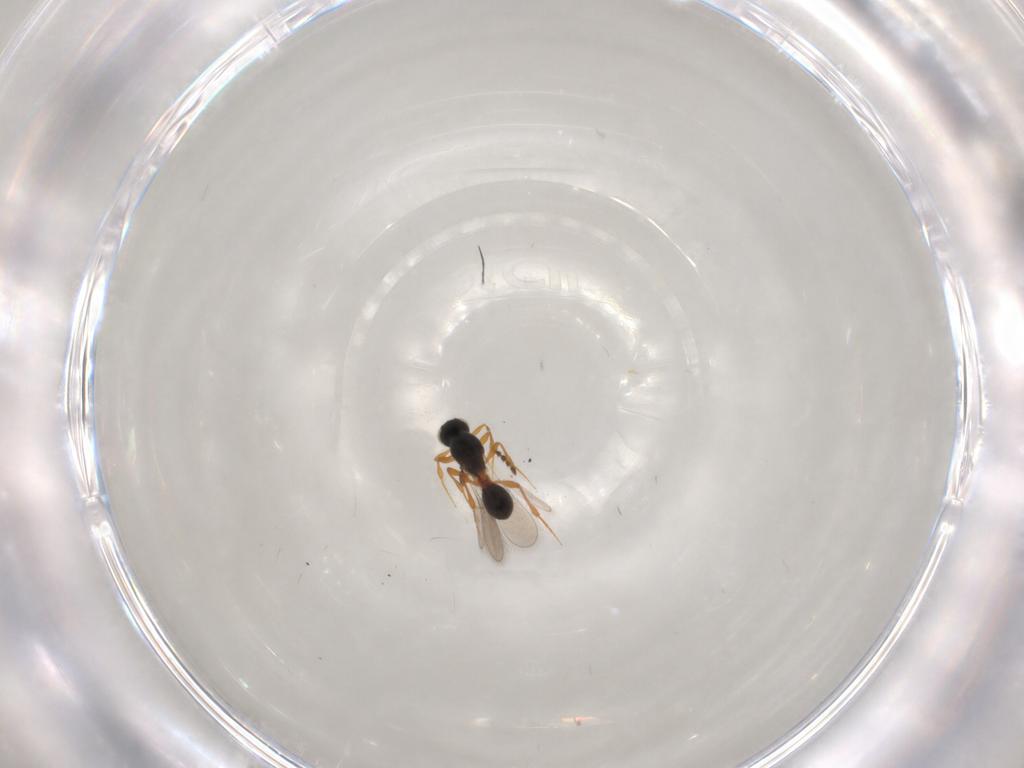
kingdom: Animalia
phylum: Arthropoda
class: Insecta
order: Hymenoptera
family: Platygastridae
